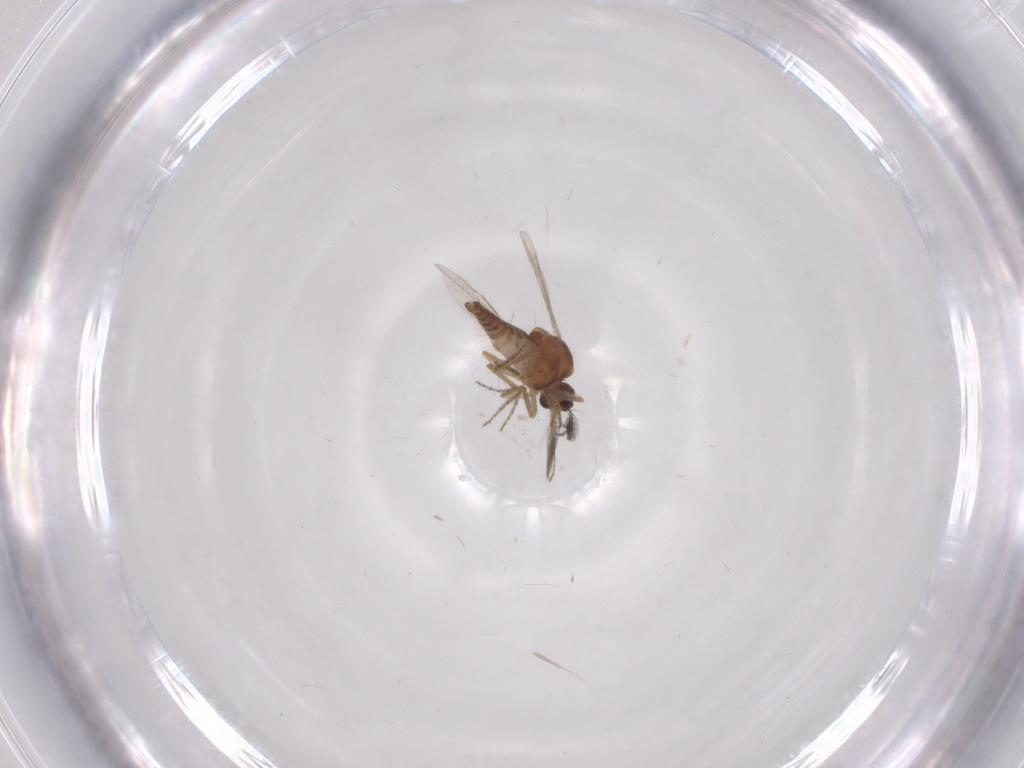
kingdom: Animalia
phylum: Arthropoda
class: Insecta
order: Diptera
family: Ceratopogonidae
